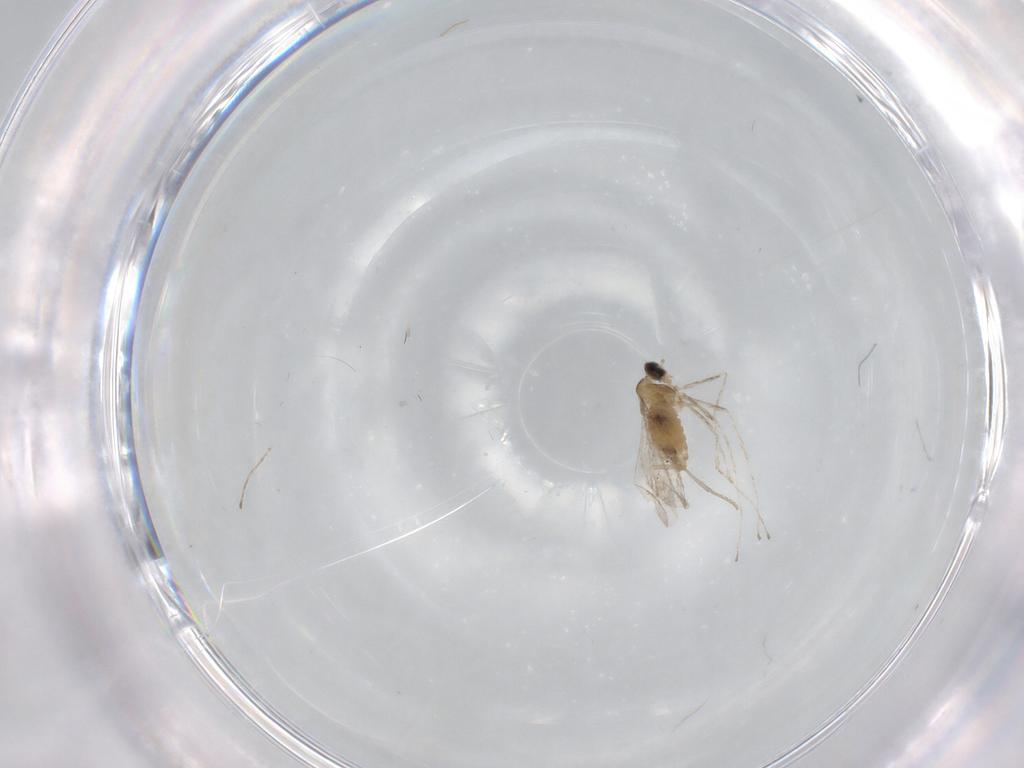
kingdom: Animalia
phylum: Arthropoda
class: Insecta
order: Diptera
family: Cecidomyiidae
